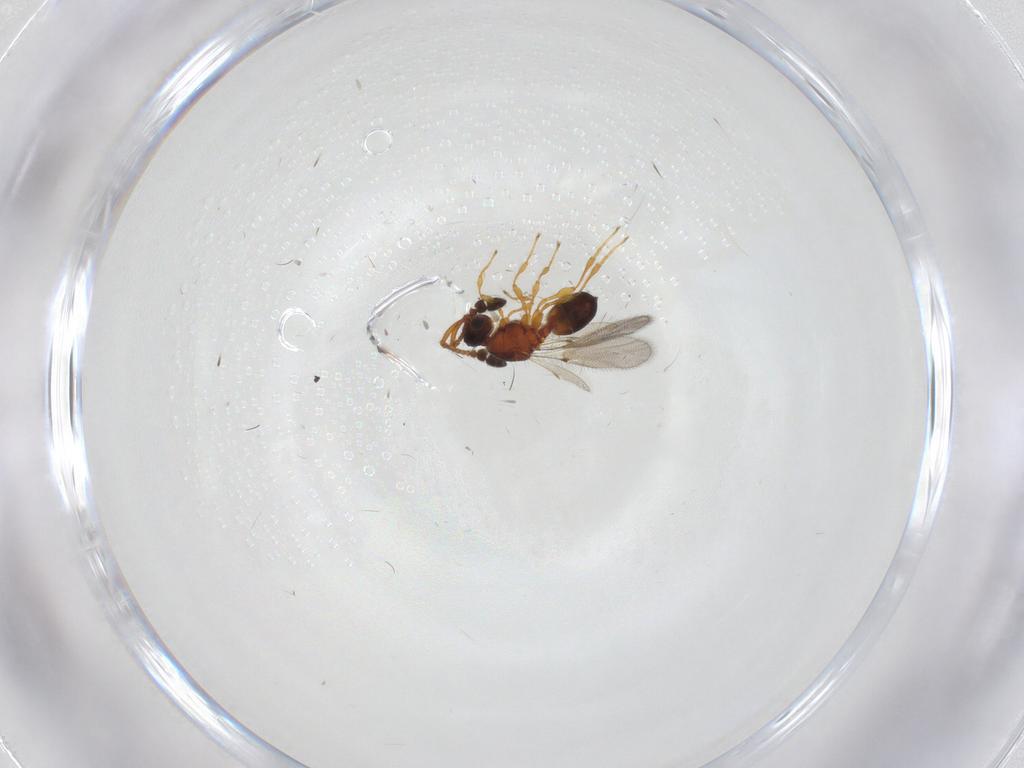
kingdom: Animalia
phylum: Arthropoda
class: Insecta
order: Hymenoptera
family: Diapriidae
